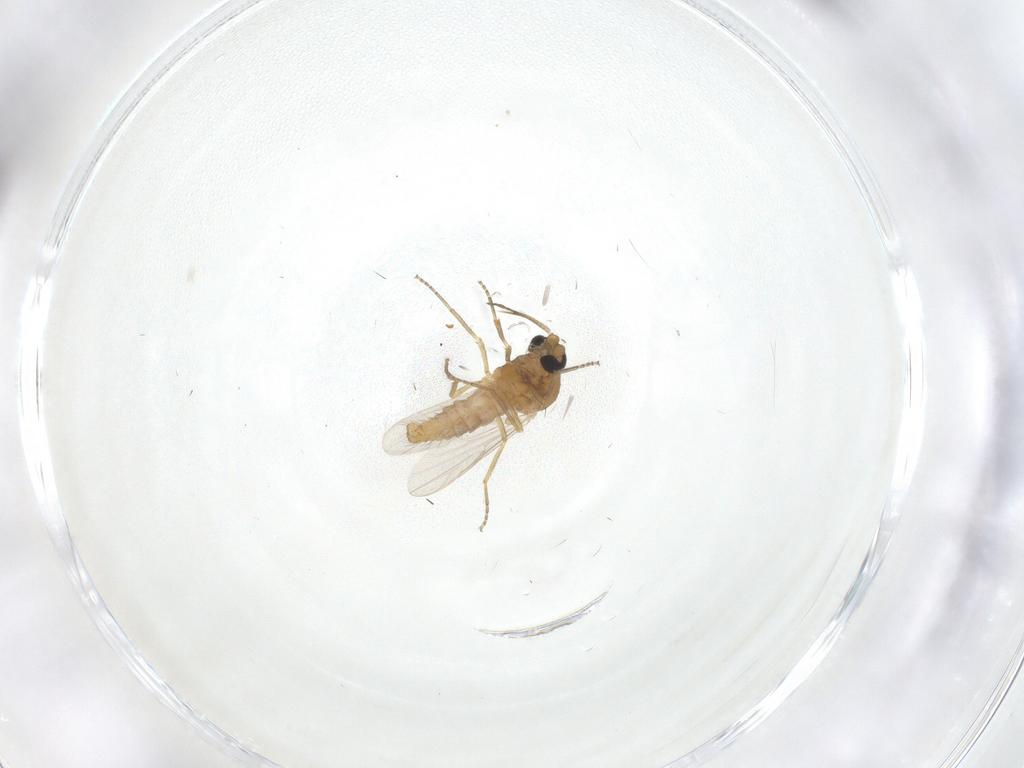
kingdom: Animalia
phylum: Arthropoda
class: Insecta
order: Diptera
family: Ceratopogonidae
